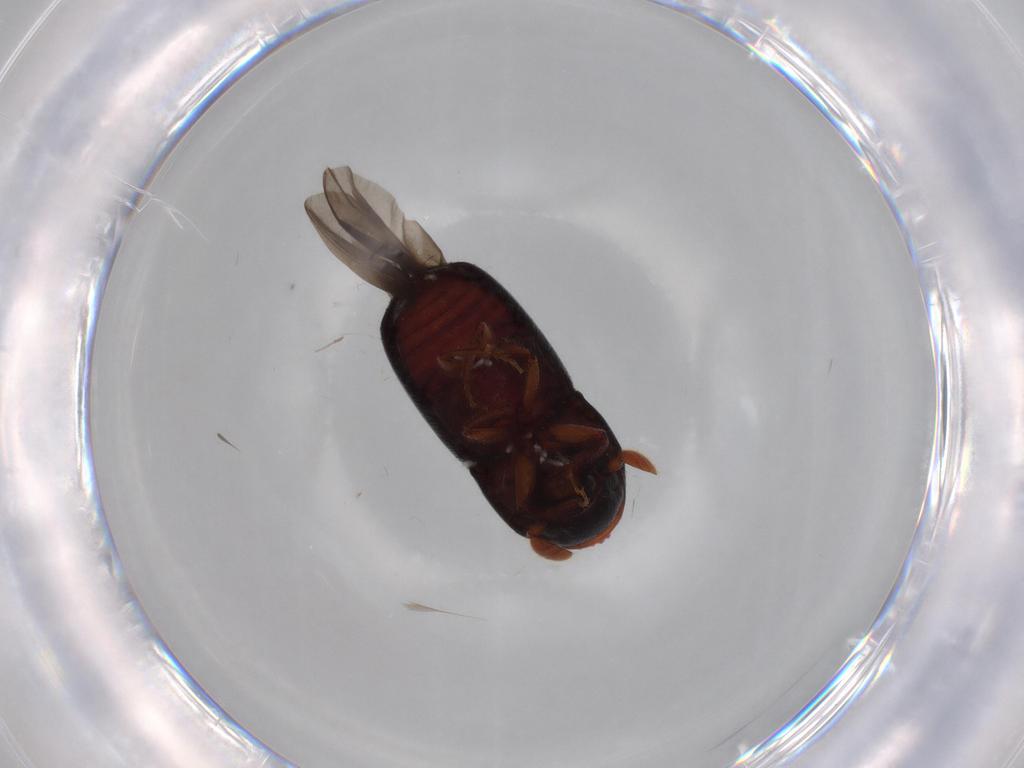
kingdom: Animalia
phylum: Arthropoda
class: Insecta
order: Coleoptera
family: Curculionidae
